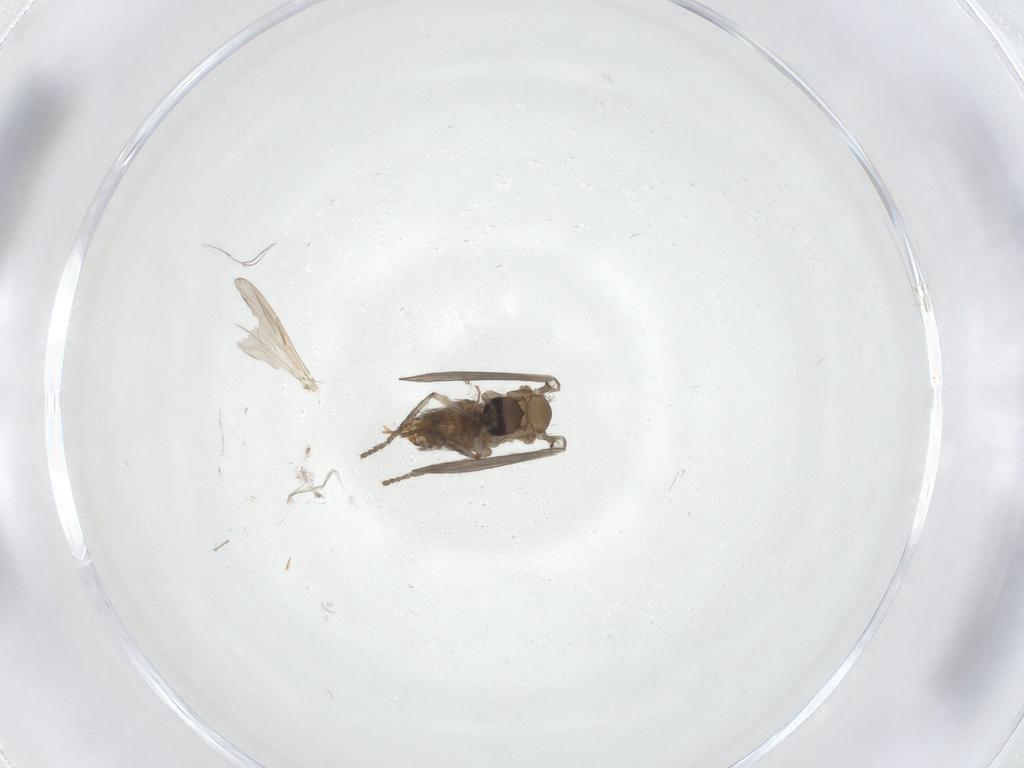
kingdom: Animalia
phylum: Arthropoda
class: Insecta
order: Diptera
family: Psychodidae
